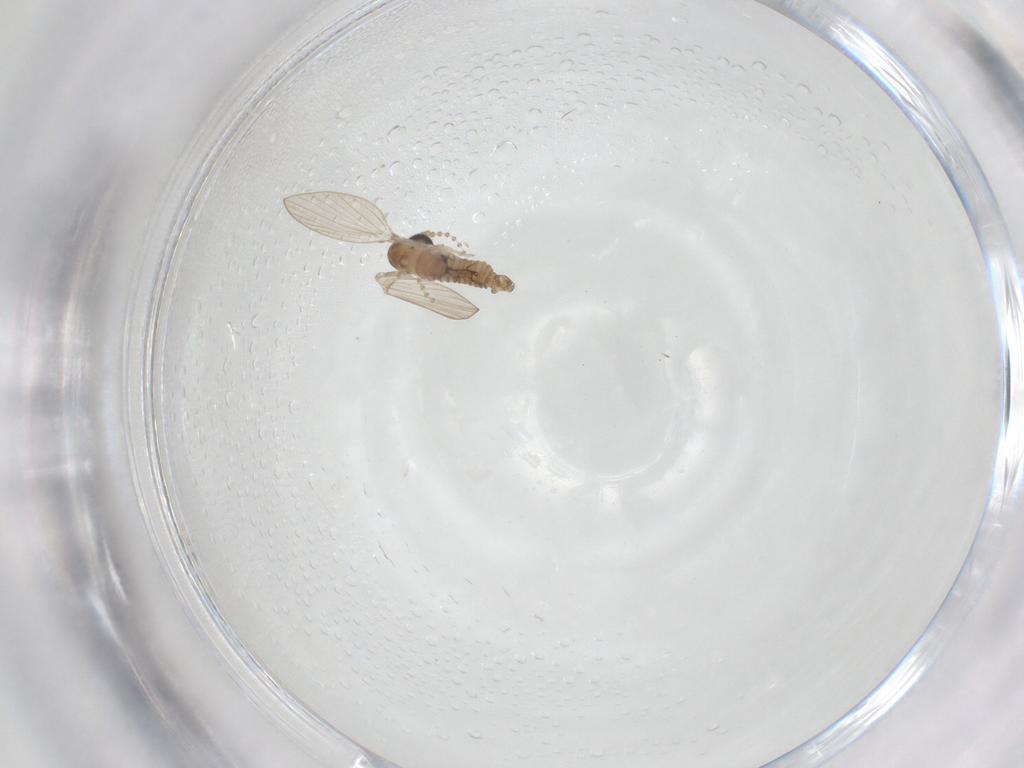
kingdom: Animalia
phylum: Arthropoda
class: Insecta
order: Diptera
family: Psychodidae
